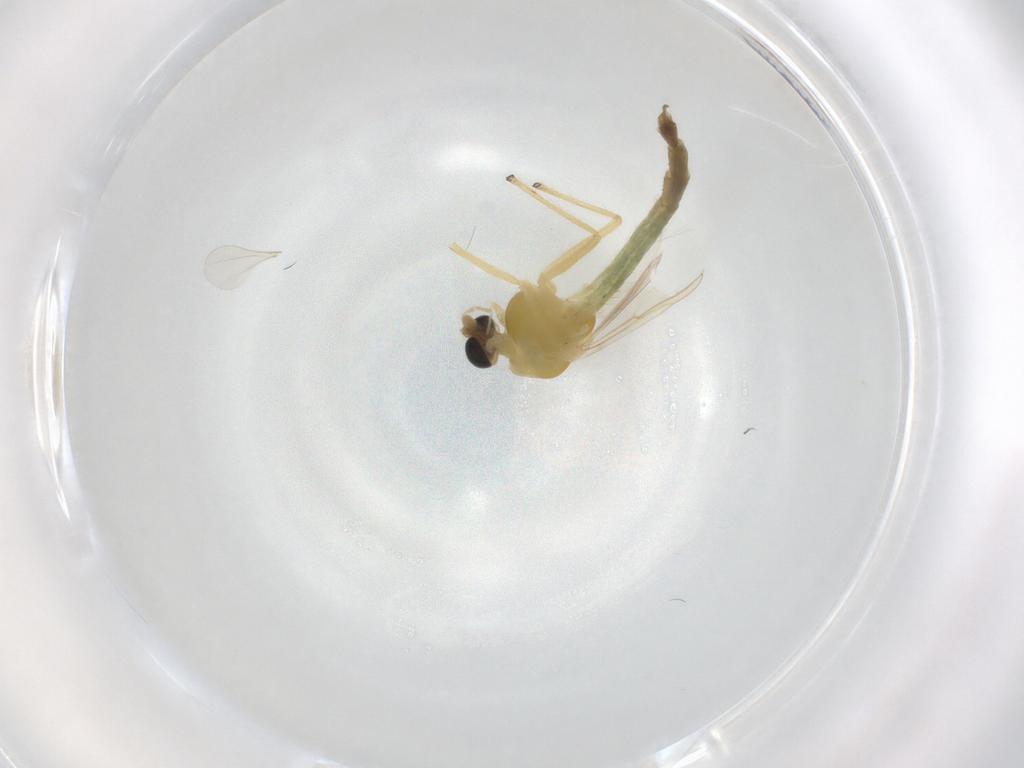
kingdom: Animalia
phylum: Arthropoda
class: Insecta
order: Diptera
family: Chironomidae
